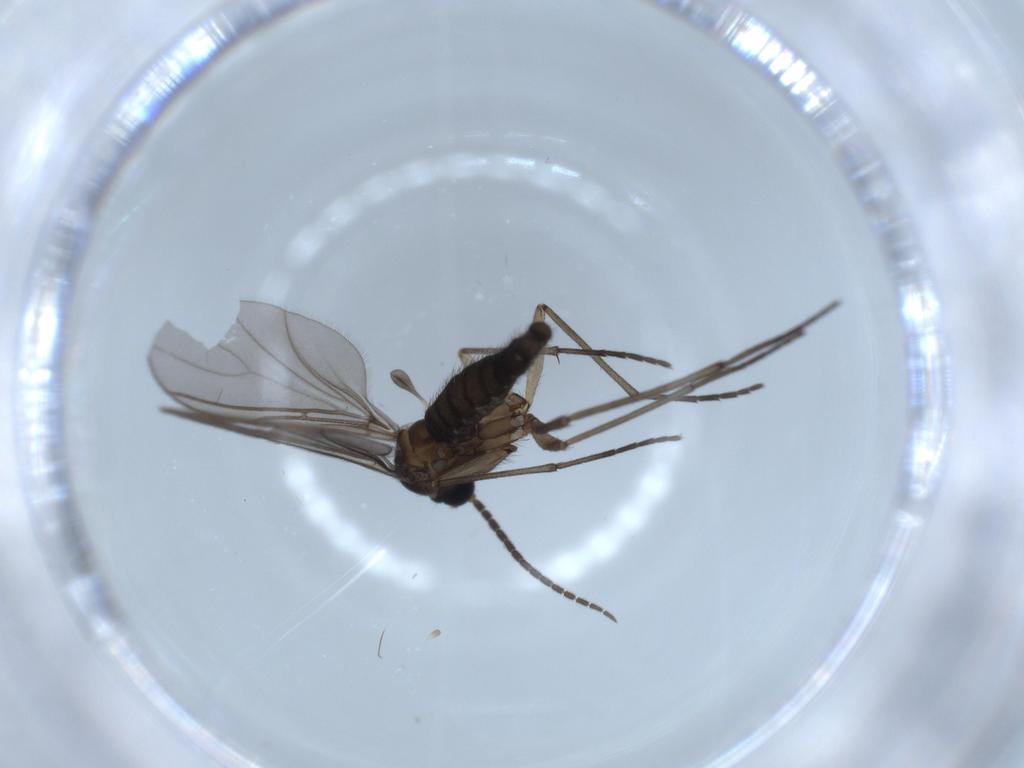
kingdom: Animalia
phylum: Arthropoda
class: Insecta
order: Diptera
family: Sciaridae
